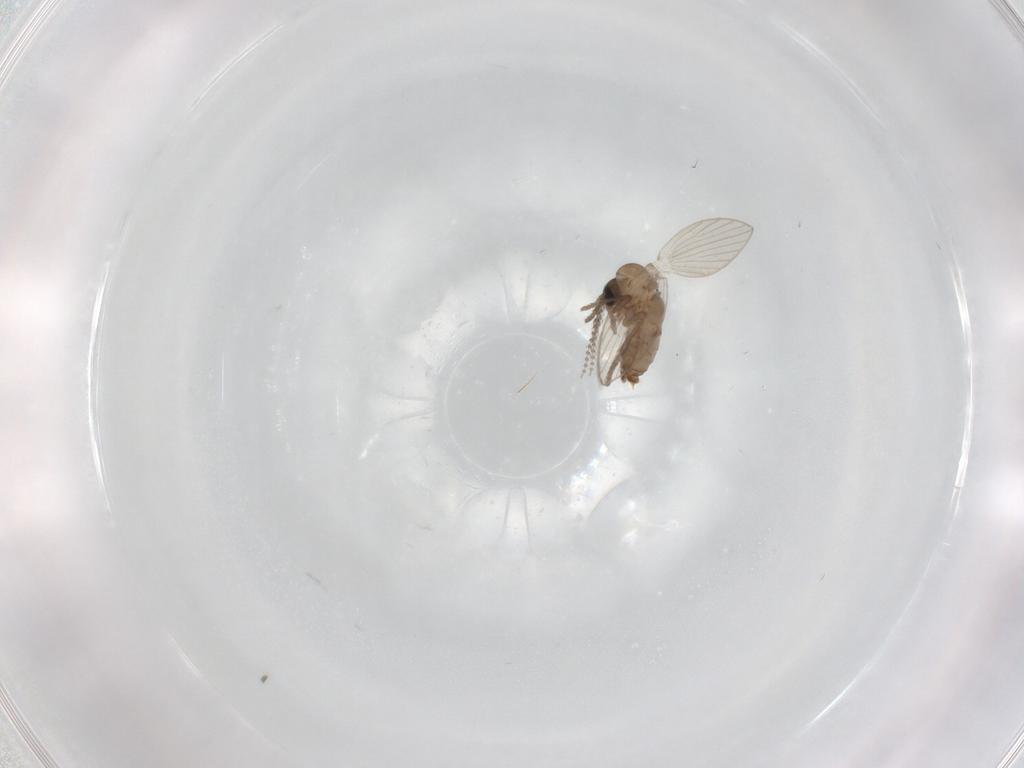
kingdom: Animalia
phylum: Arthropoda
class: Insecta
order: Diptera
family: Psychodidae
